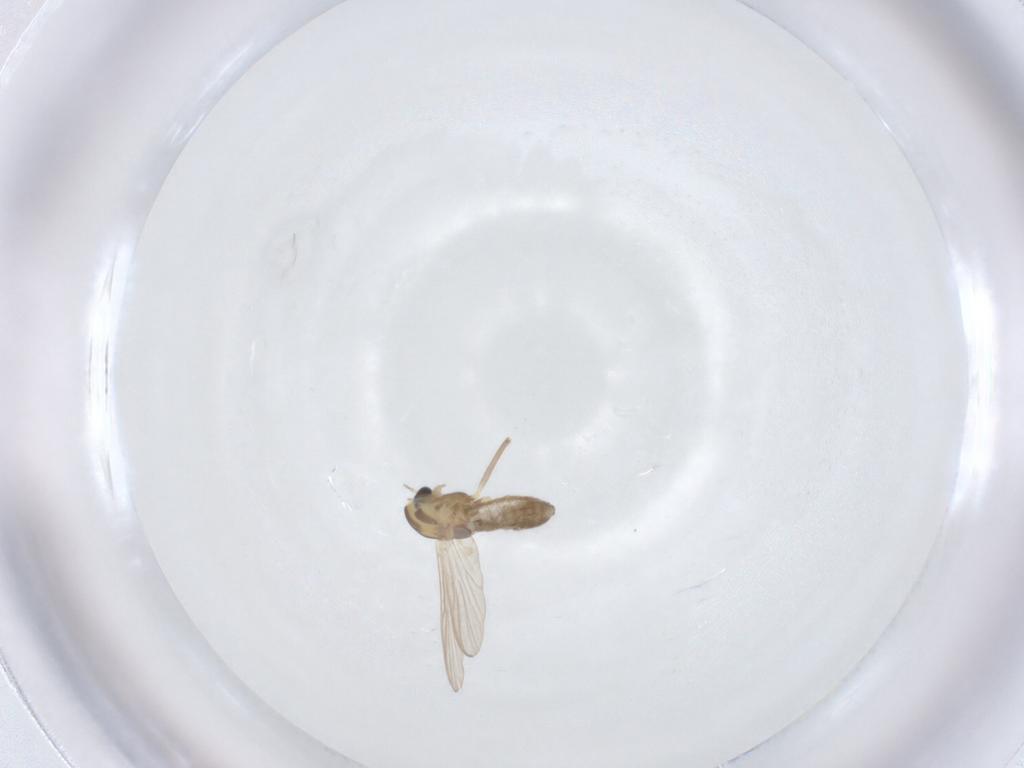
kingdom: Animalia
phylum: Arthropoda
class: Insecta
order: Diptera
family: Chironomidae
